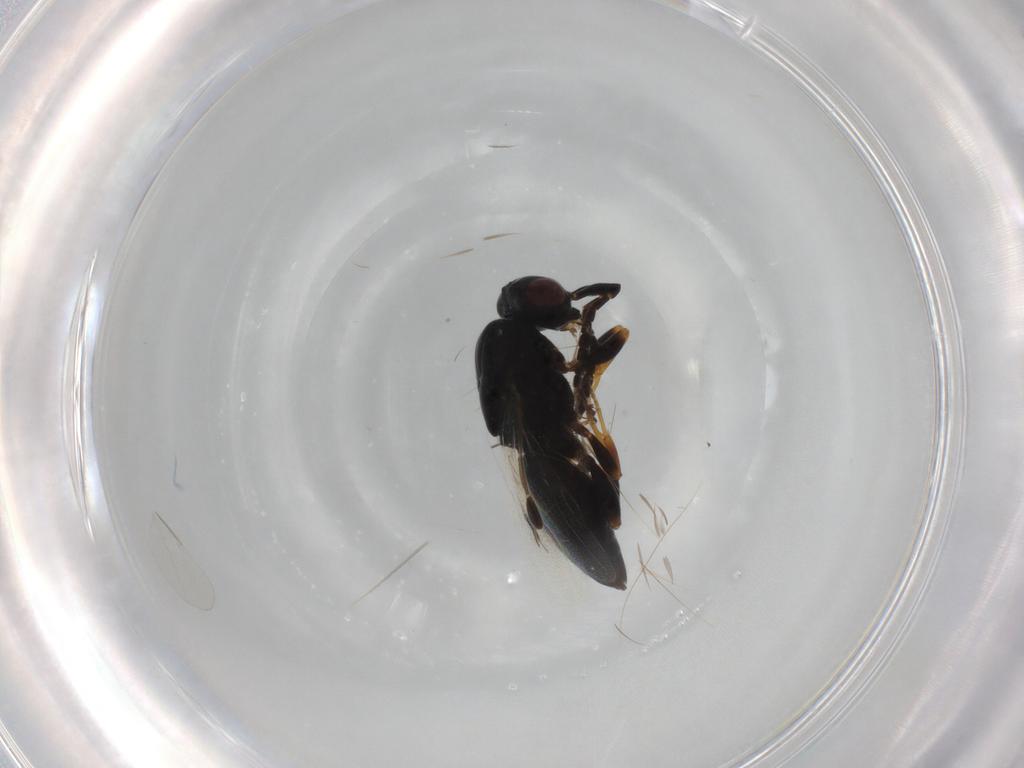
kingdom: Animalia
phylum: Arthropoda
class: Insecta
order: Hymenoptera
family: Megaspilidae
